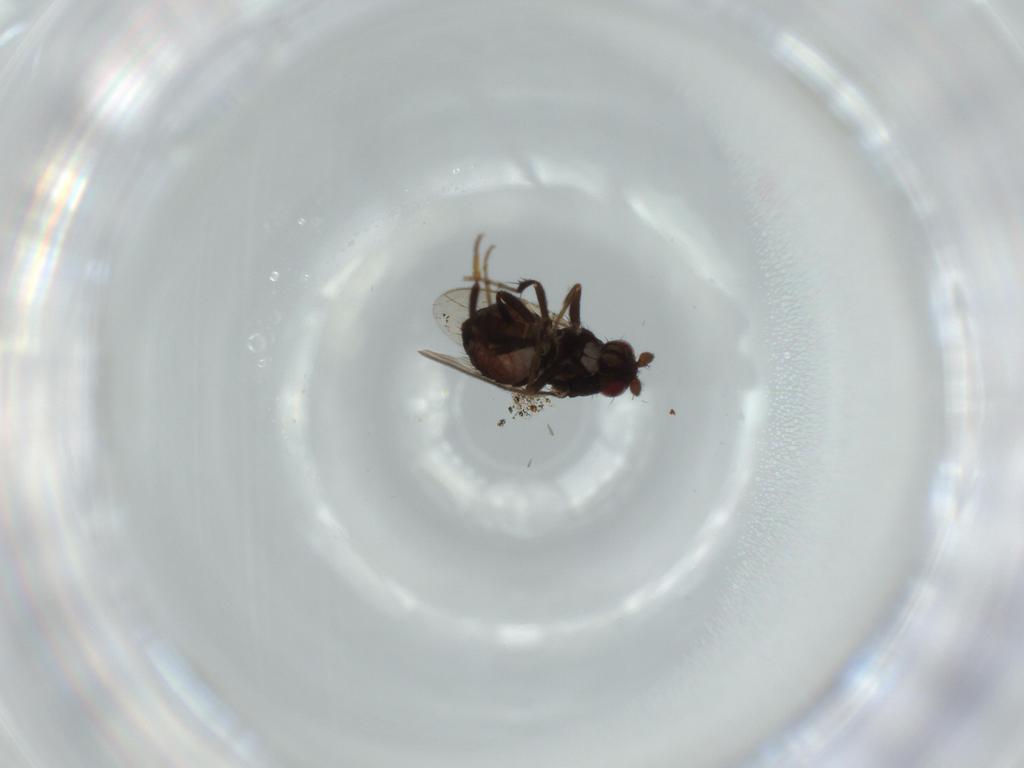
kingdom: Animalia
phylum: Arthropoda
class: Insecta
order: Diptera
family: Sphaeroceridae
